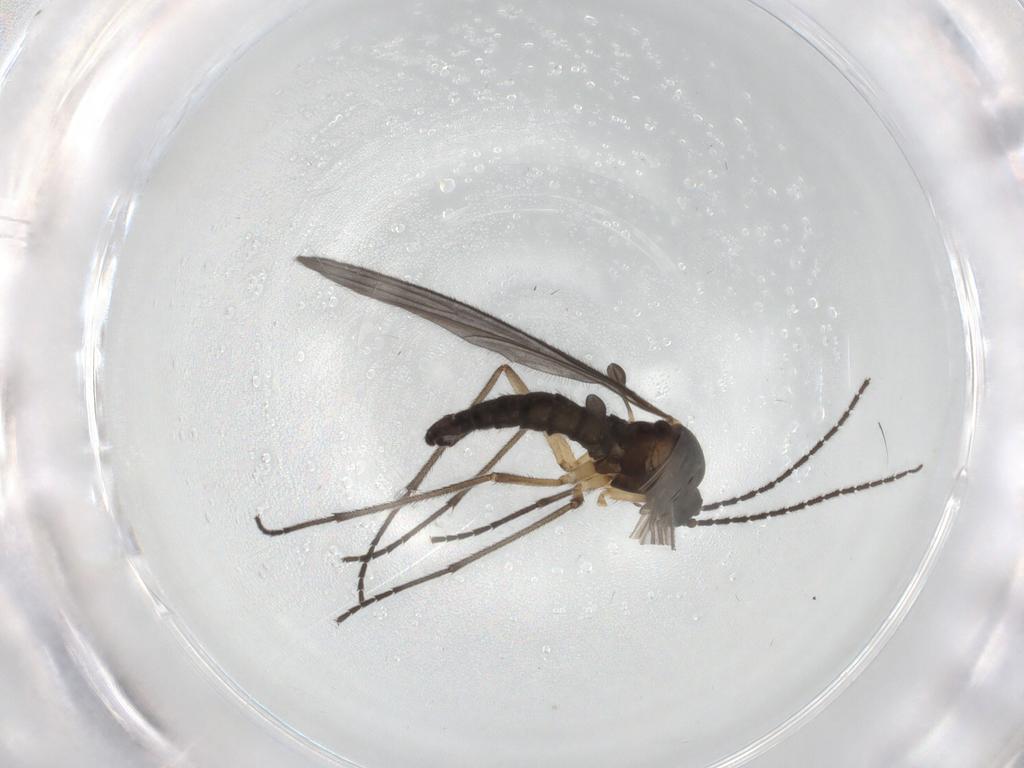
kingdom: Animalia
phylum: Arthropoda
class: Insecta
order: Diptera
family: Sciaridae
